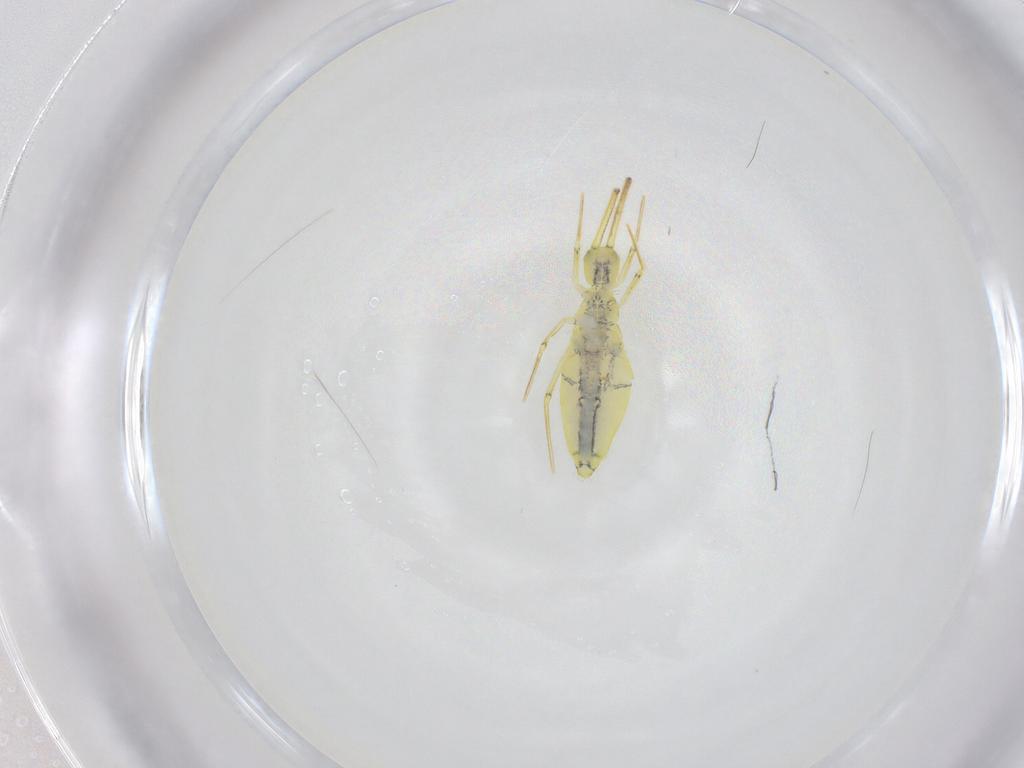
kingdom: Animalia
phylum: Arthropoda
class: Collembola
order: Entomobryomorpha
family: Entomobryidae
